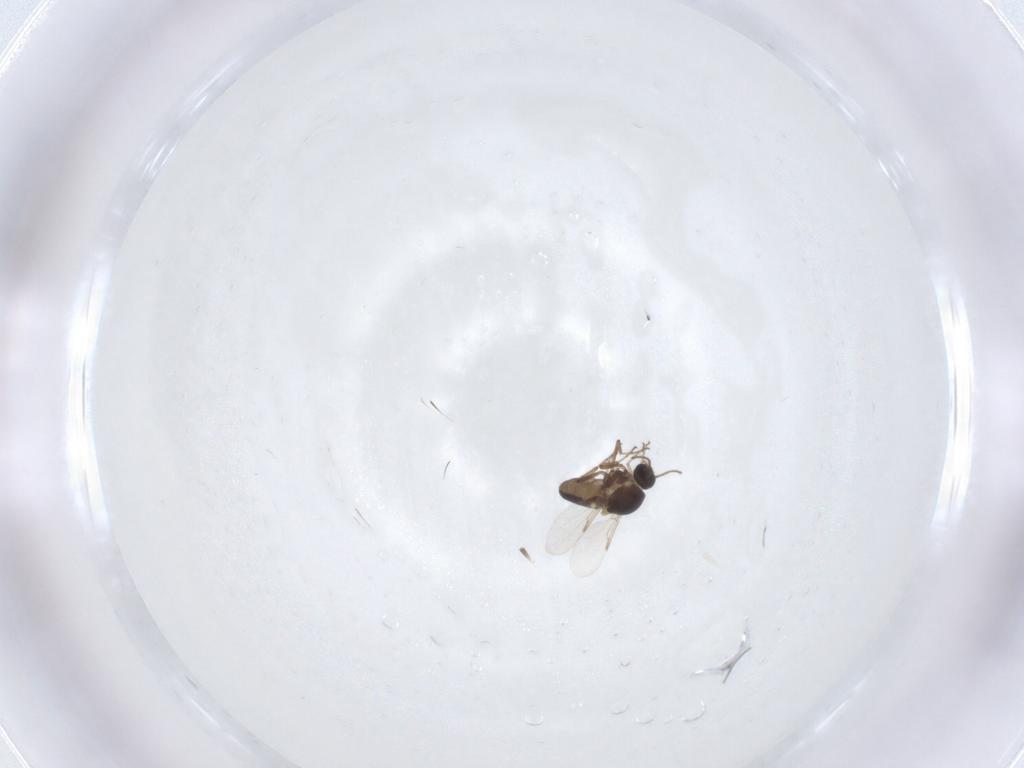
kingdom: Animalia
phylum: Arthropoda
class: Insecta
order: Diptera
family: Ceratopogonidae
